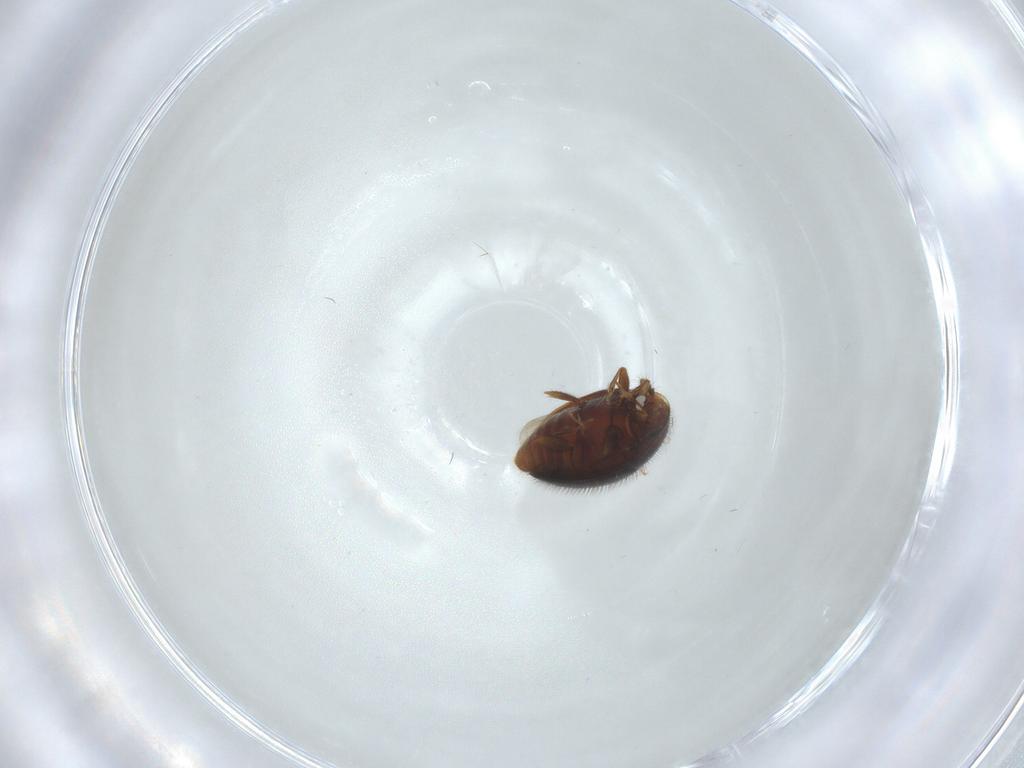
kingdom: Animalia
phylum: Arthropoda
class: Insecta
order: Coleoptera
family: Corylophidae
